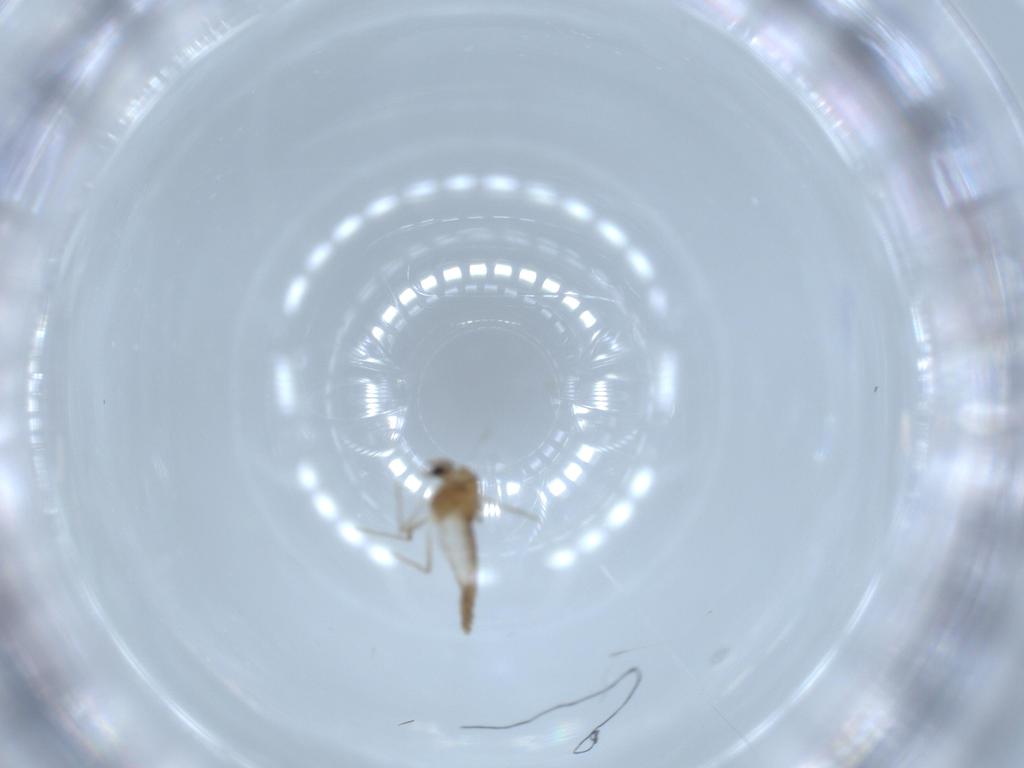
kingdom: Animalia
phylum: Arthropoda
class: Insecta
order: Diptera
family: Chironomidae
